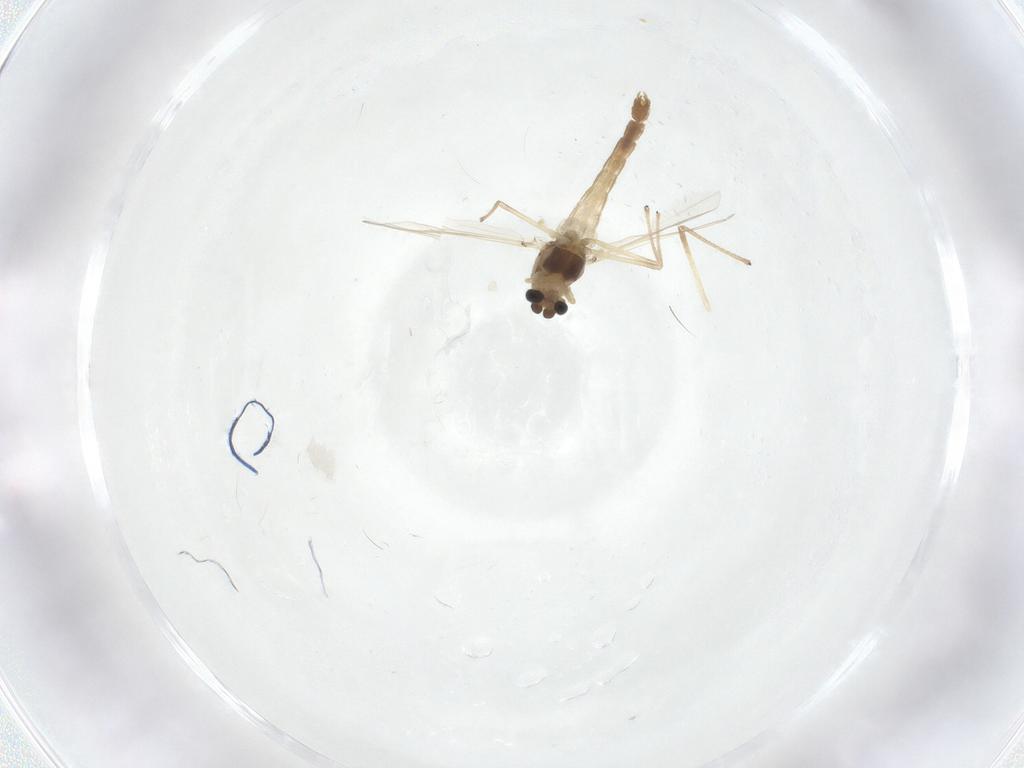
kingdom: Animalia
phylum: Arthropoda
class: Insecta
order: Diptera
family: Chironomidae
